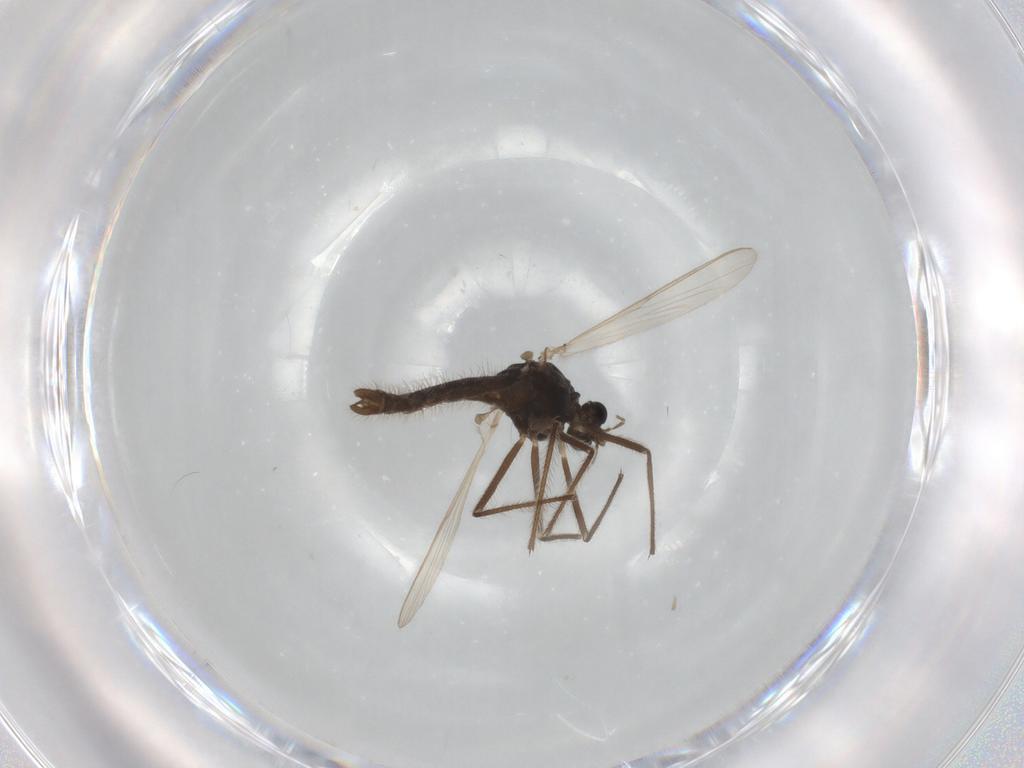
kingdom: Animalia
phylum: Arthropoda
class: Insecta
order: Diptera
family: Chironomidae
